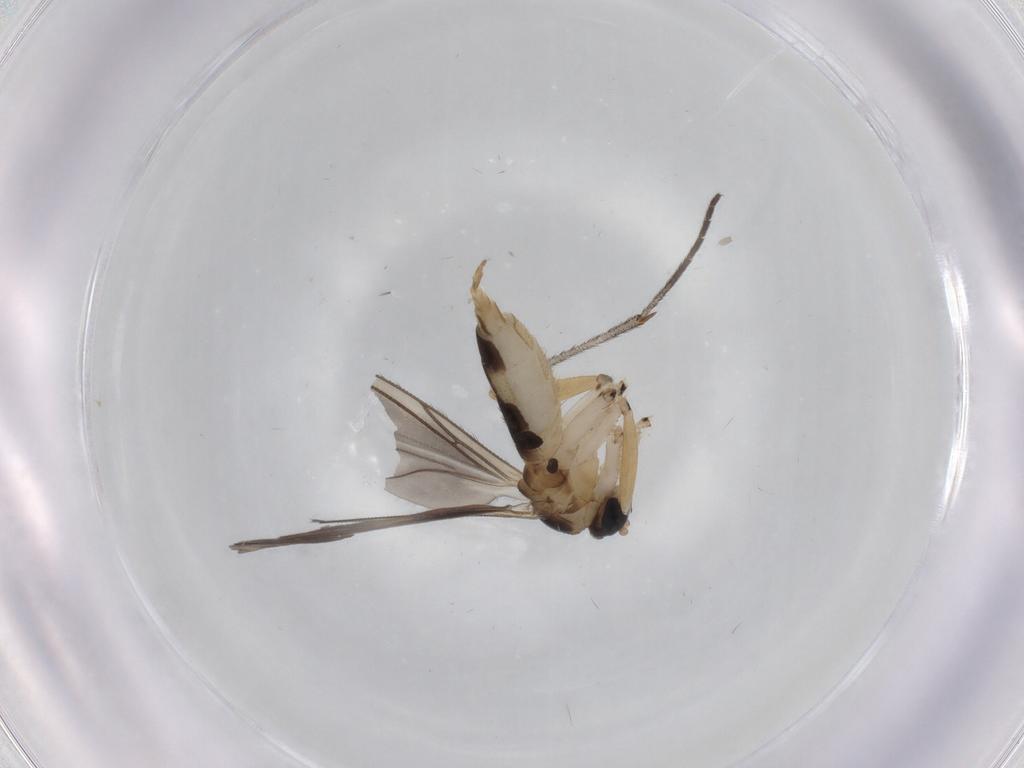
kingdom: Animalia
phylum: Arthropoda
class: Insecta
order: Diptera
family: Sciaridae
